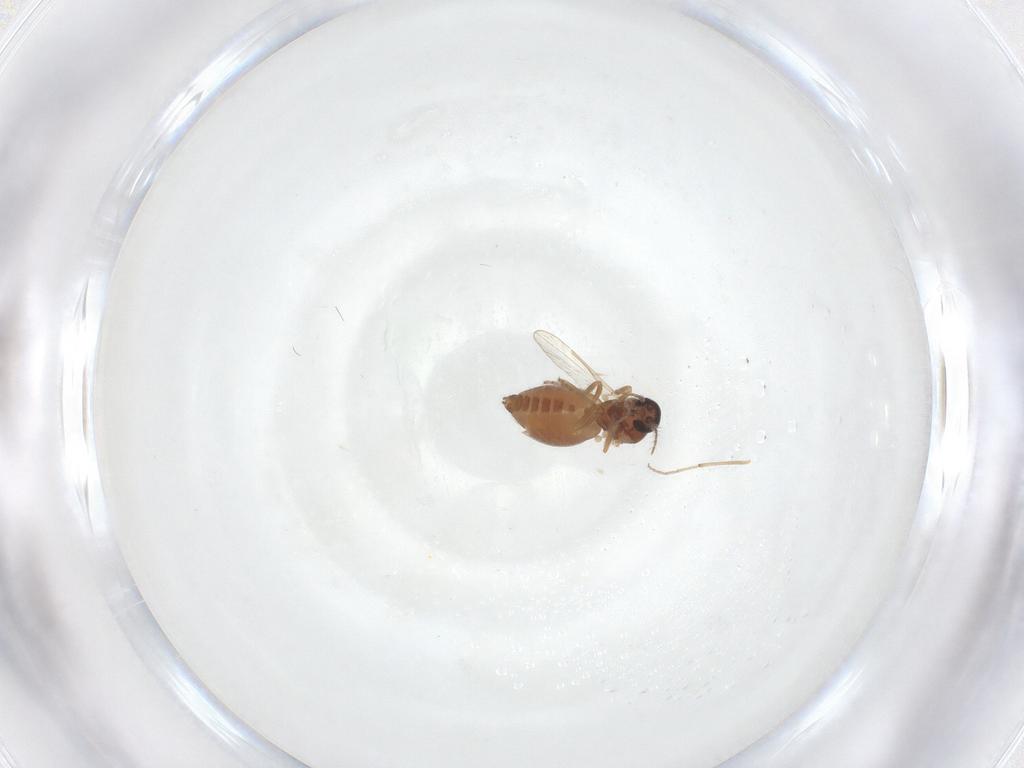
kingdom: Animalia
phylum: Arthropoda
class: Insecta
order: Diptera
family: Ceratopogonidae
